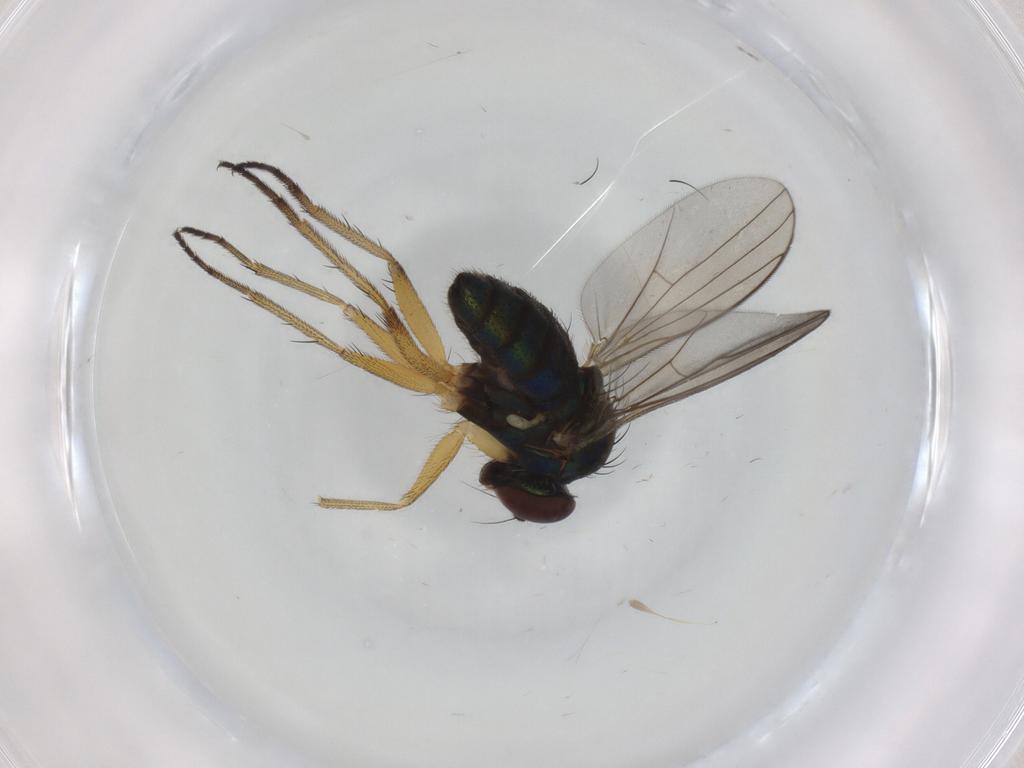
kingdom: Animalia
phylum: Arthropoda
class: Insecta
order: Diptera
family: Dolichopodidae
